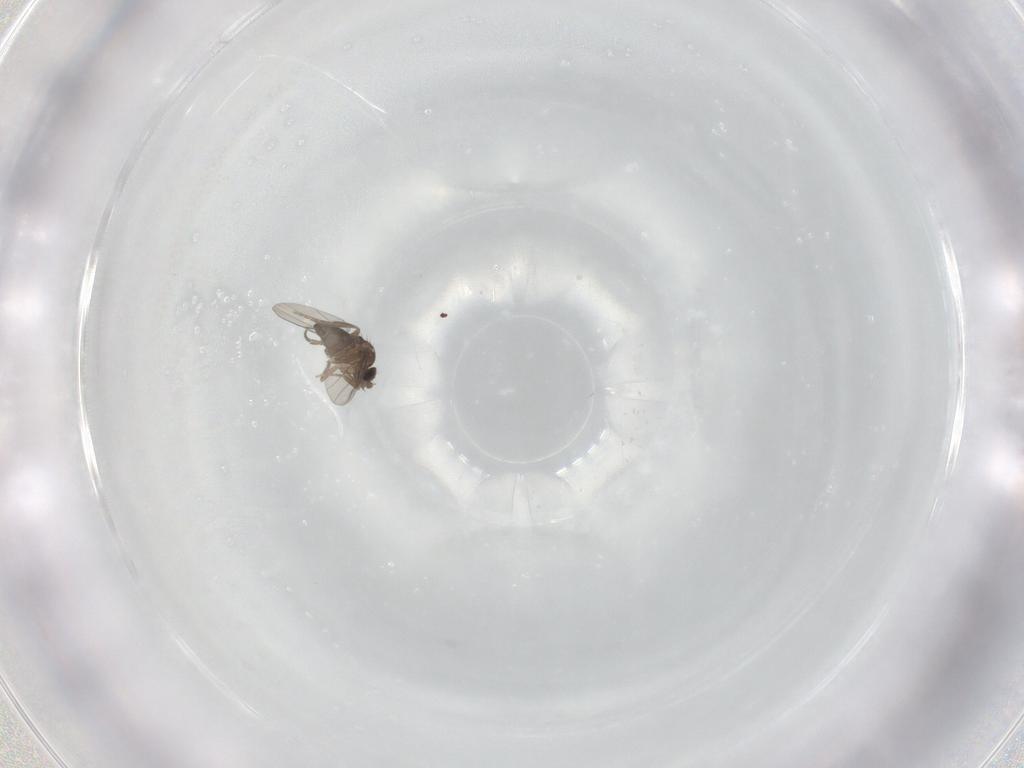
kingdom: Animalia
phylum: Arthropoda
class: Insecta
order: Diptera
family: Phoridae
